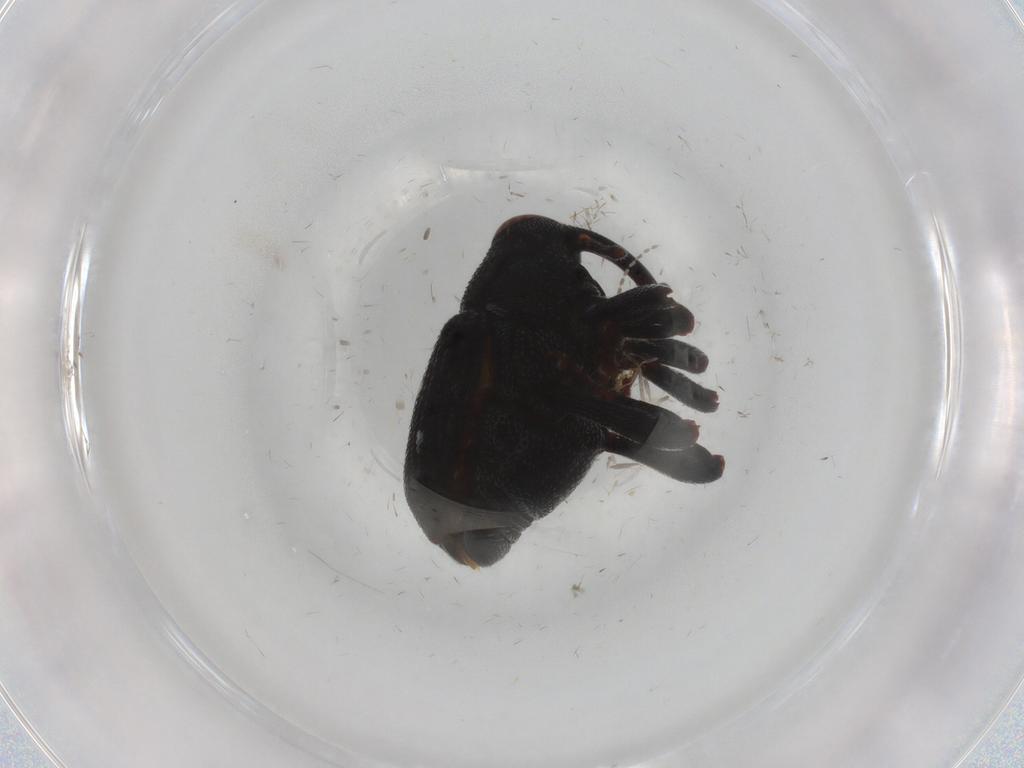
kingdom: Animalia
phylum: Arthropoda
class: Insecta
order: Coleoptera
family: Curculionidae
